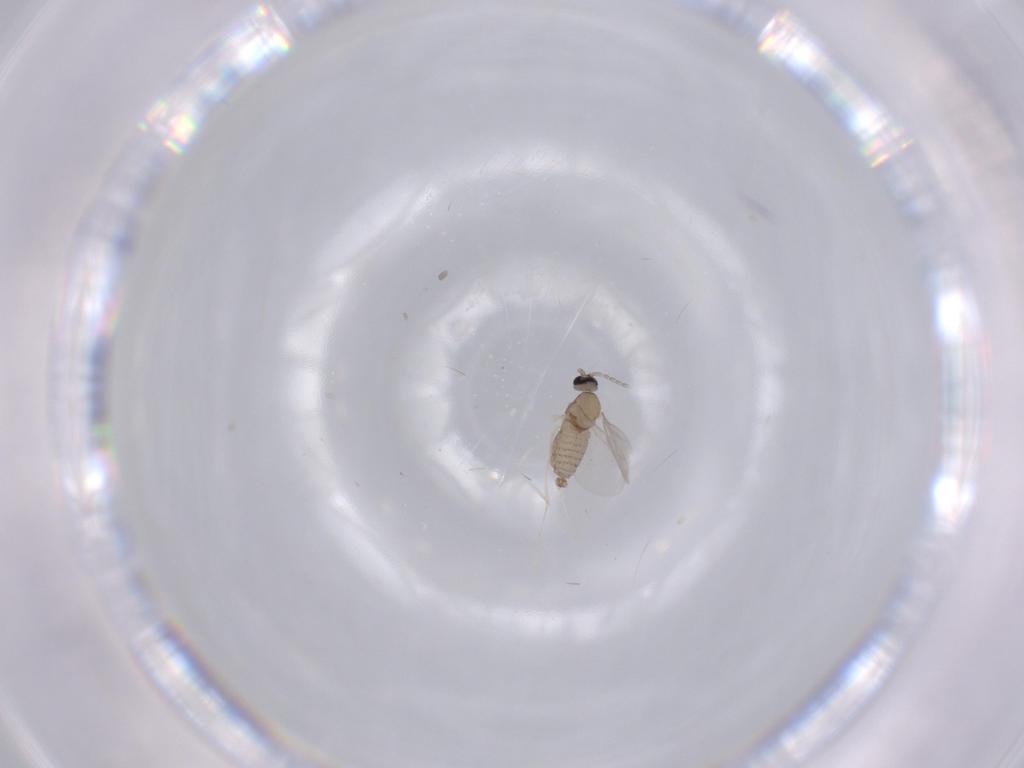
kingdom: Animalia
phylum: Arthropoda
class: Insecta
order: Diptera
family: Cecidomyiidae
